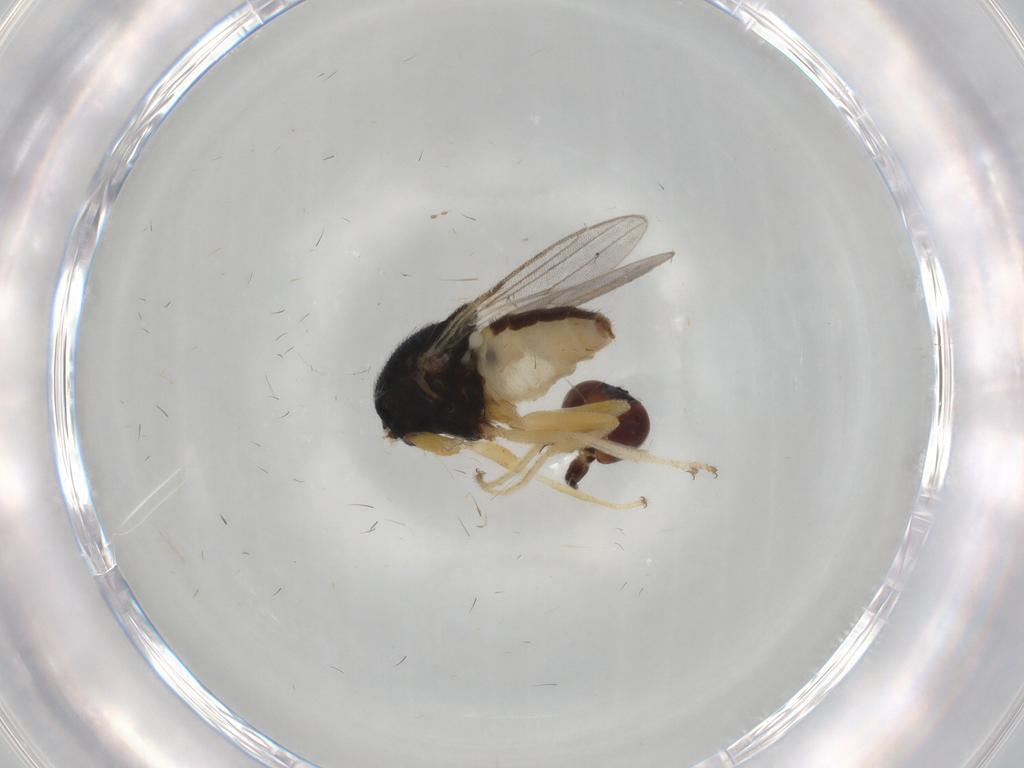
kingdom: Animalia
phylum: Arthropoda
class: Insecta
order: Diptera
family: Chloropidae
